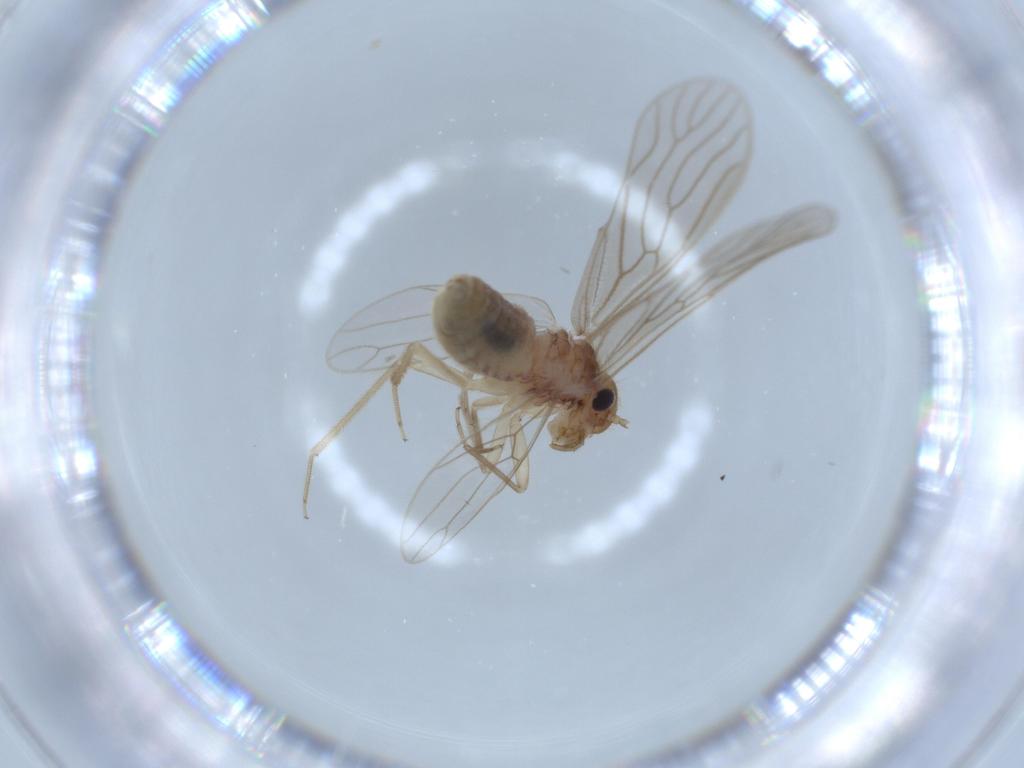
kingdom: Animalia
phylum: Arthropoda
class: Insecta
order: Psocodea
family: Cladiopsocidae
